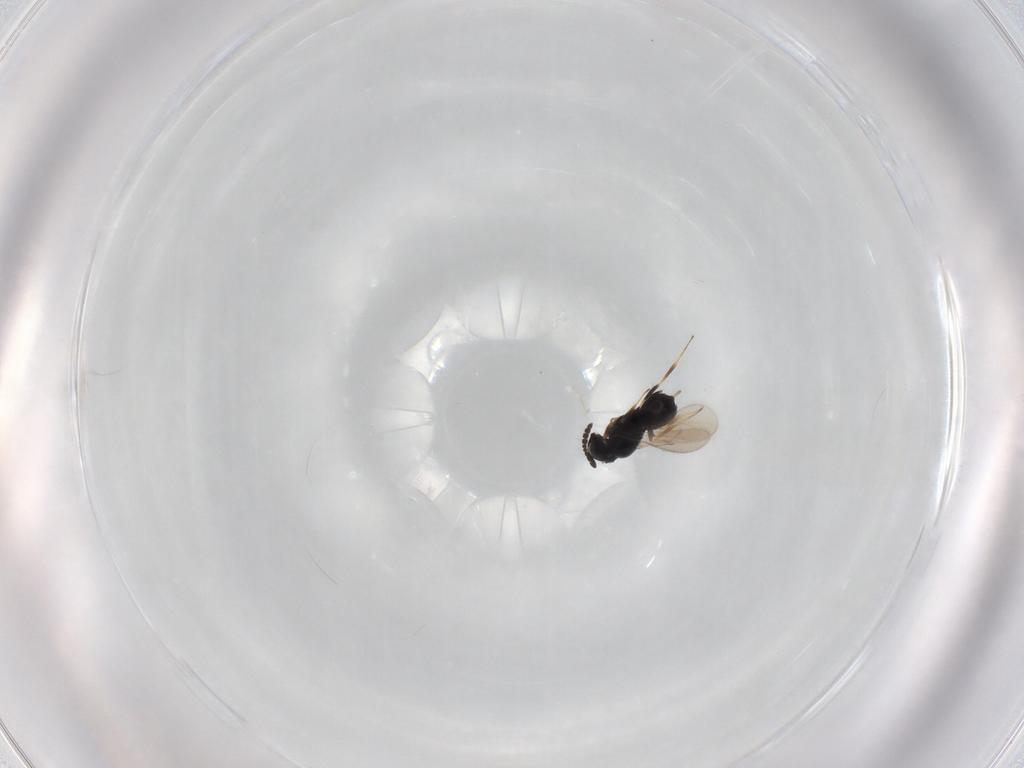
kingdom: Animalia
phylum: Arthropoda
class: Insecta
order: Hymenoptera
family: Scelionidae
